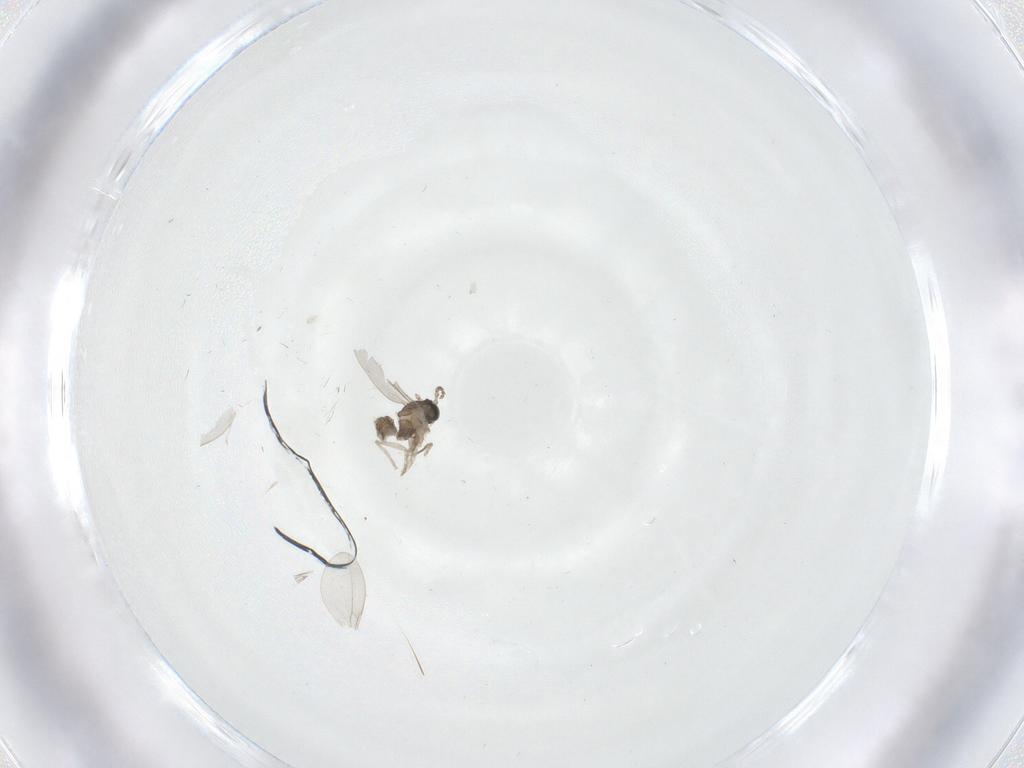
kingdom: Animalia
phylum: Arthropoda
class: Insecta
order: Diptera
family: Cecidomyiidae
